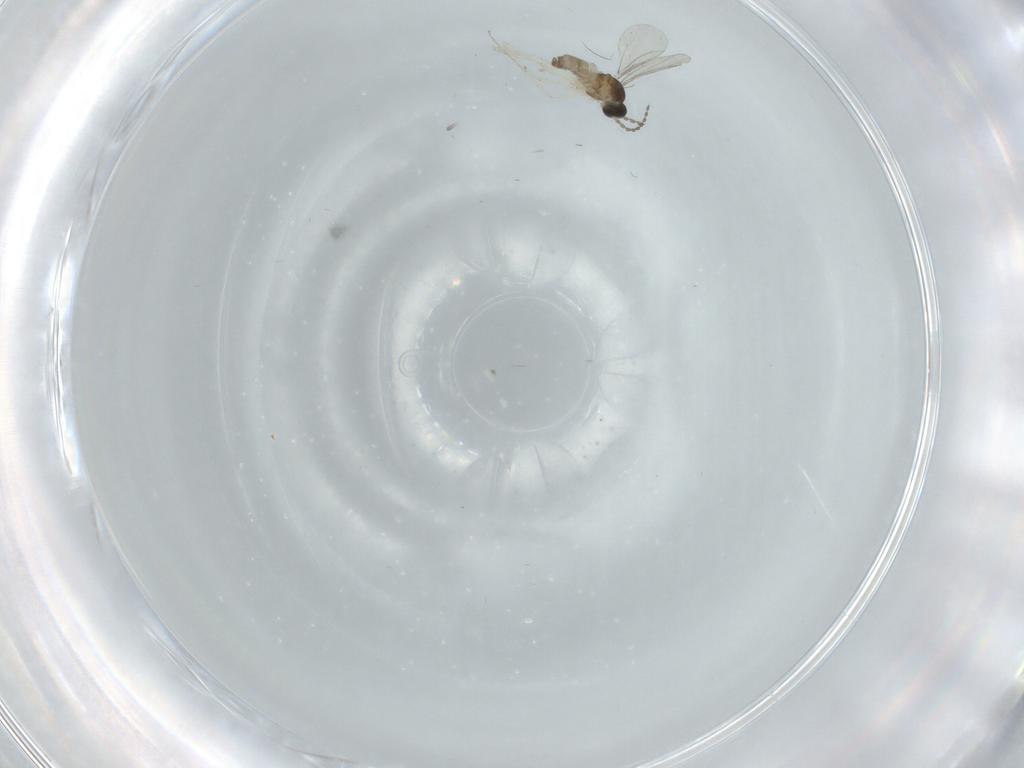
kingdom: Animalia
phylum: Arthropoda
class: Insecta
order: Diptera
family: Cecidomyiidae
